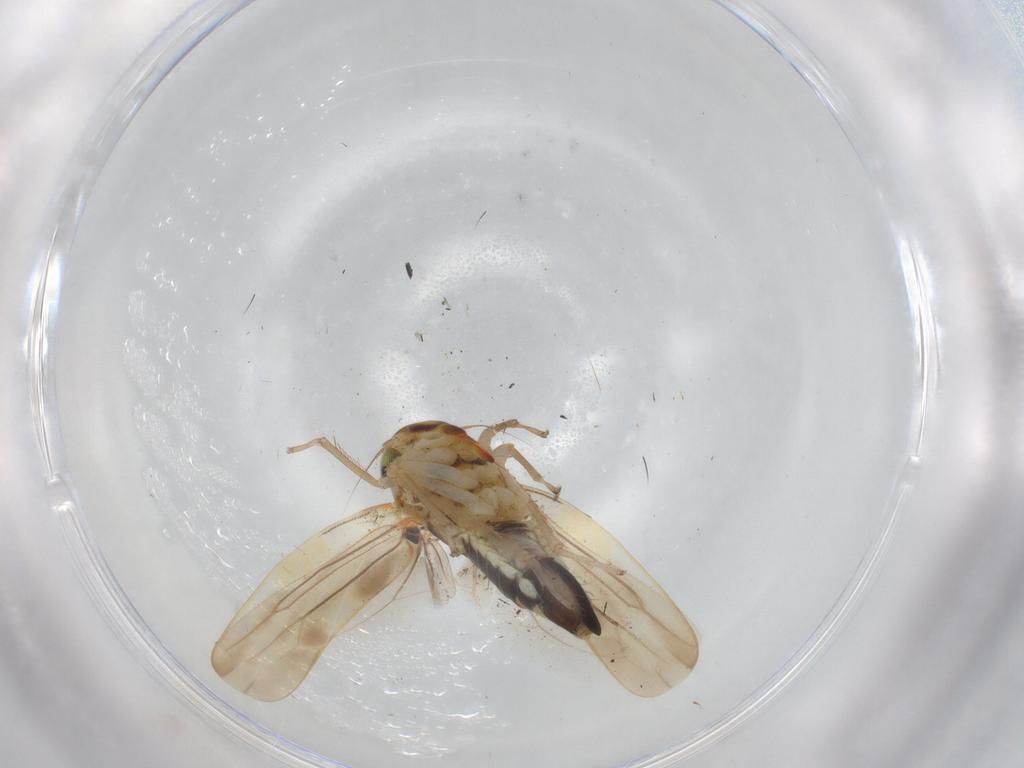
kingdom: Animalia
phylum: Arthropoda
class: Insecta
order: Hemiptera
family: Cicadellidae
